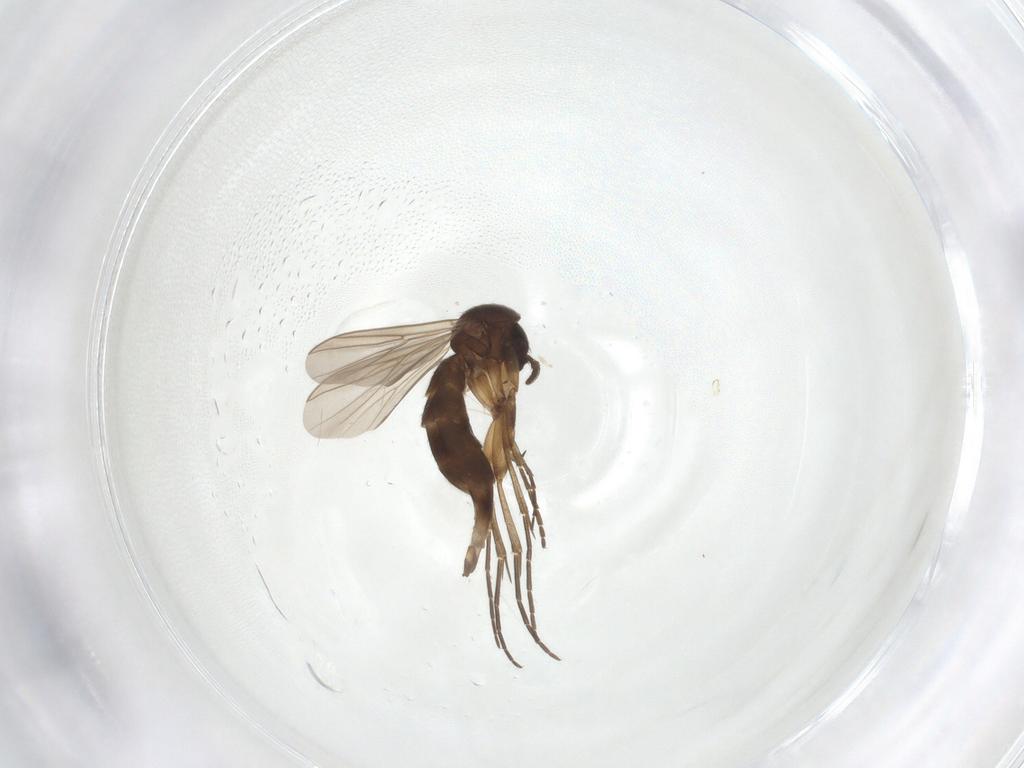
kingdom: Animalia
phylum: Arthropoda
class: Insecta
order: Diptera
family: Mycetophilidae
